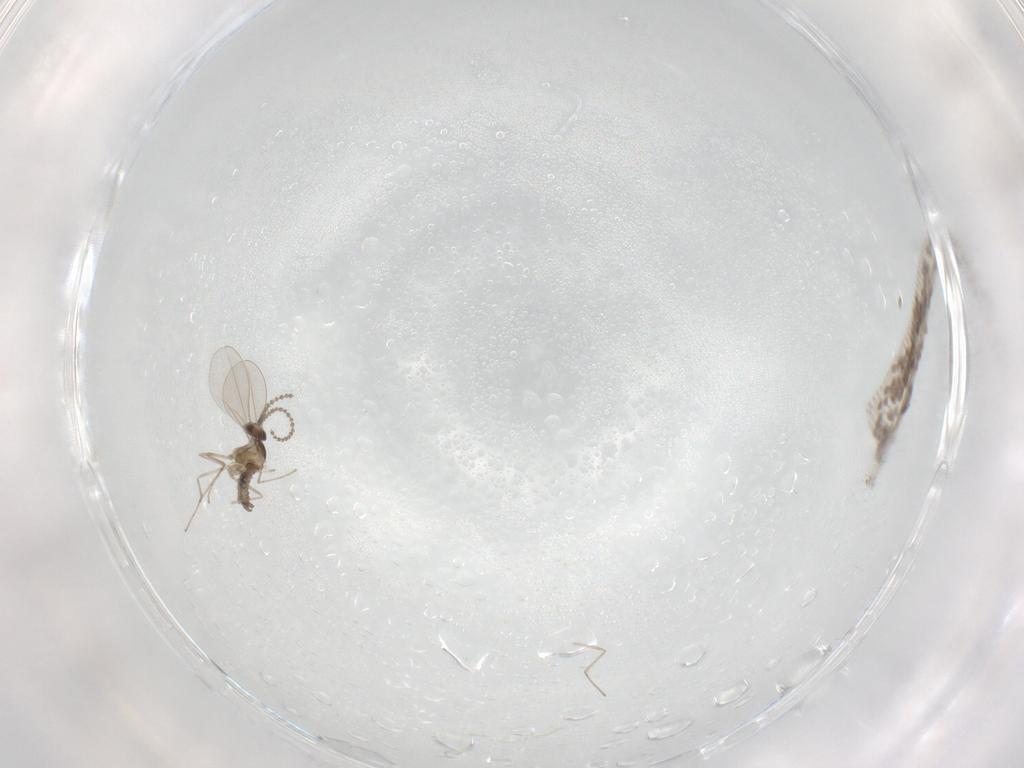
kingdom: Animalia
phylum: Arthropoda
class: Insecta
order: Diptera
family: Cecidomyiidae
